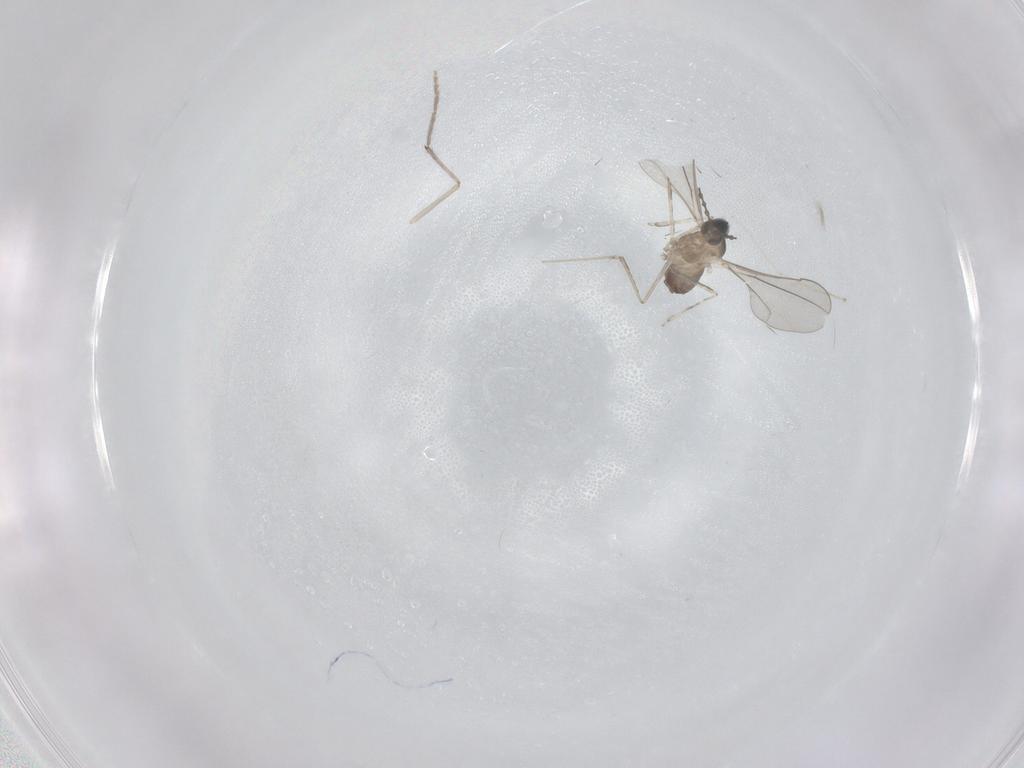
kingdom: Animalia
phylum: Arthropoda
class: Insecta
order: Diptera
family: Cecidomyiidae
